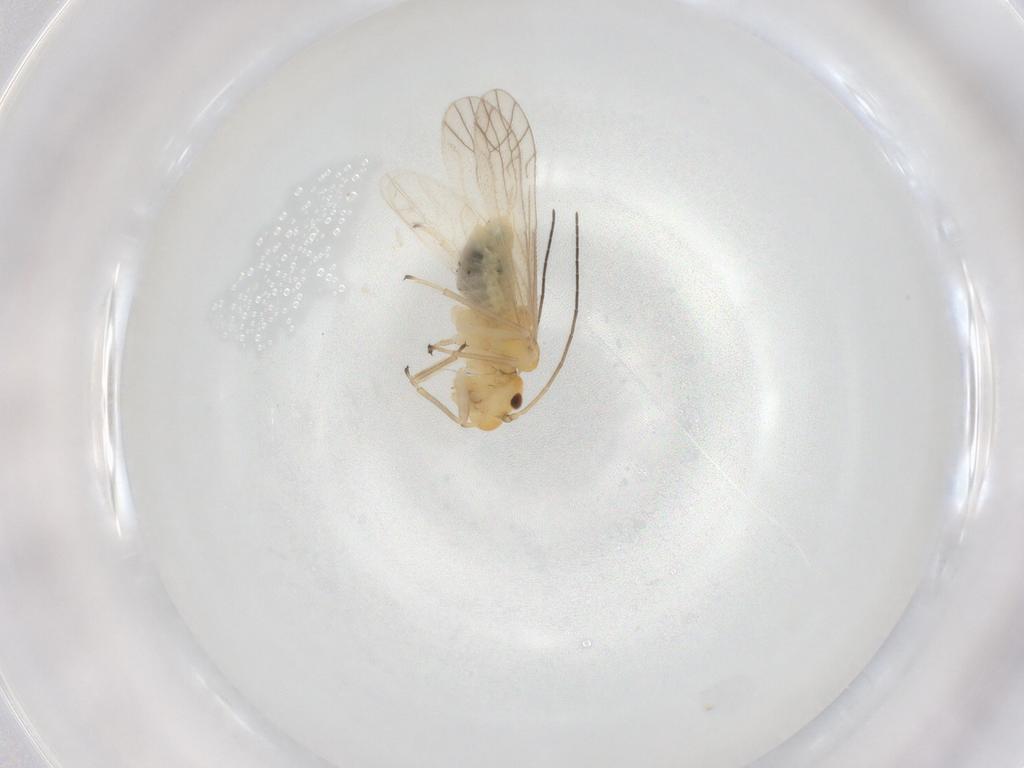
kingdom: Animalia
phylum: Arthropoda
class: Insecta
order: Psocodea
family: Caeciliusidae
